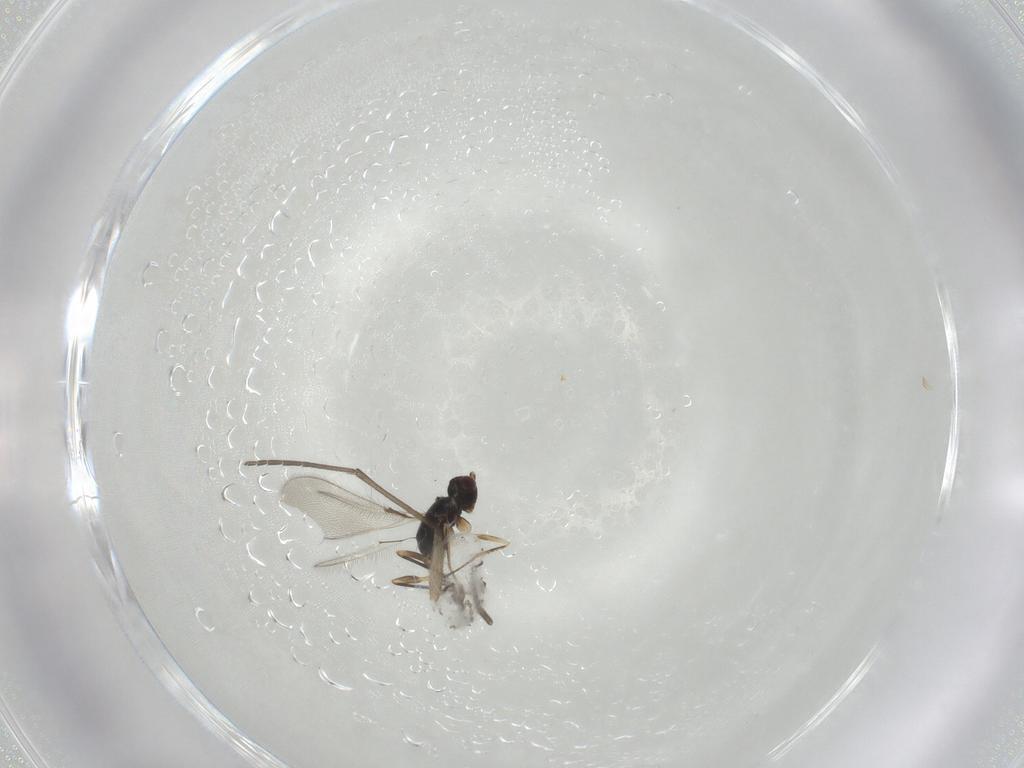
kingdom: Animalia
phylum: Arthropoda
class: Insecta
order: Hymenoptera
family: Mymaridae
